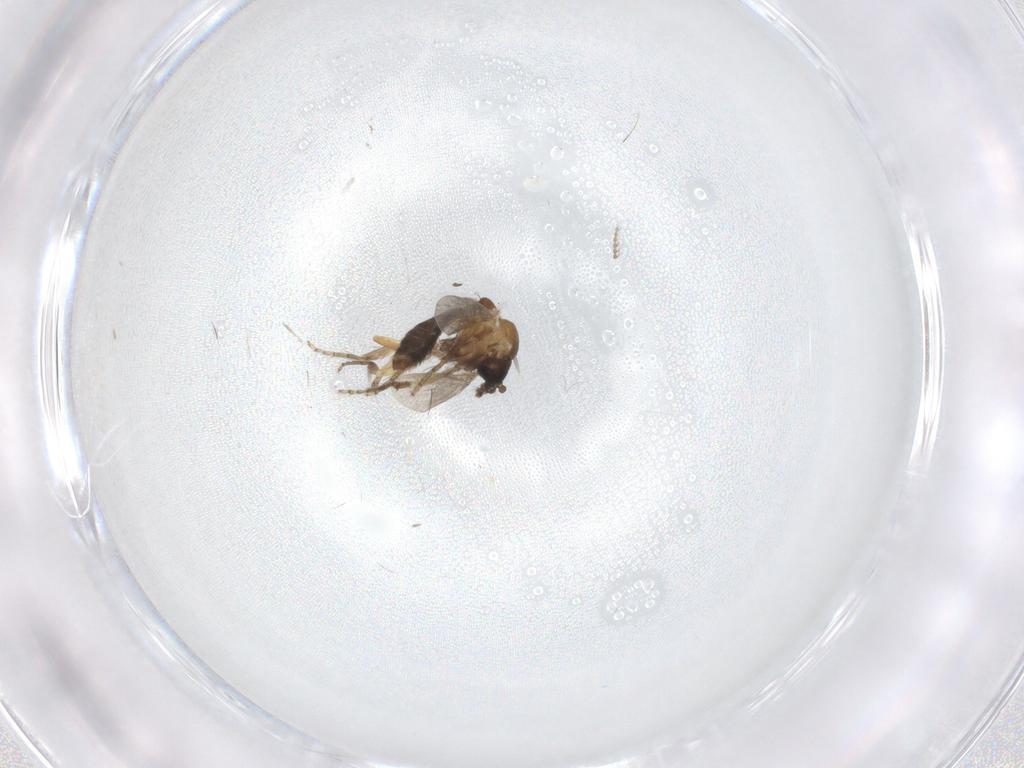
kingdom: Animalia
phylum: Arthropoda
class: Insecta
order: Diptera
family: Ceratopogonidae
